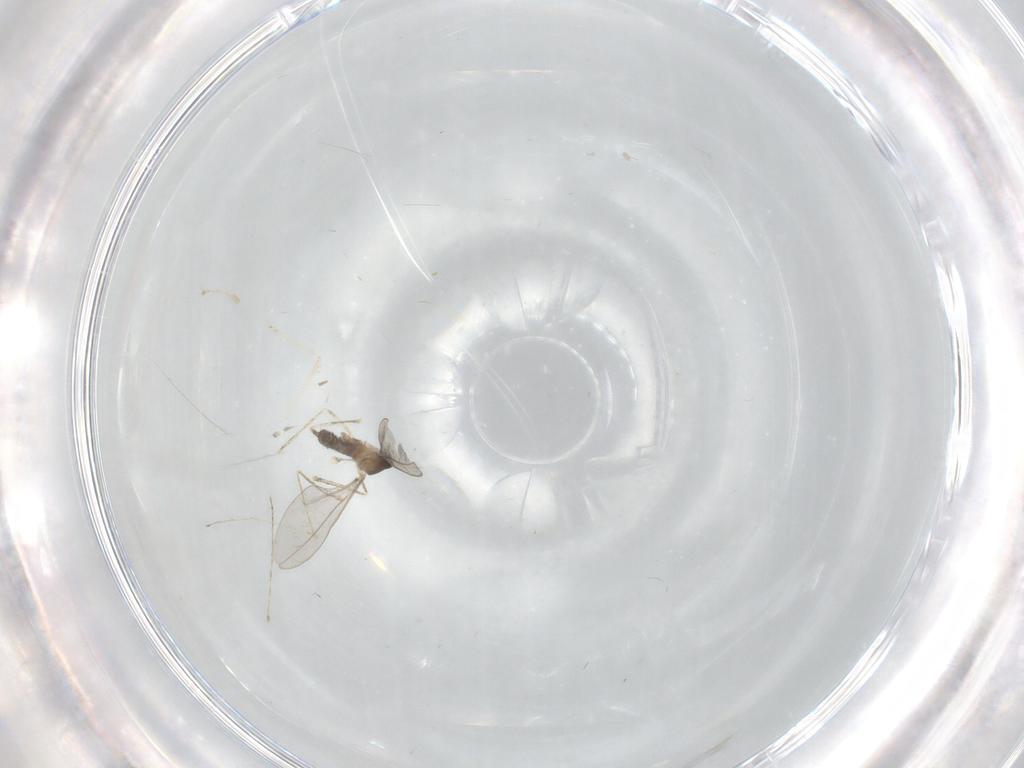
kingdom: Animalia
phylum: Arthropoda
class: Insecta
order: Diptera
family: Cecidomyiidae
